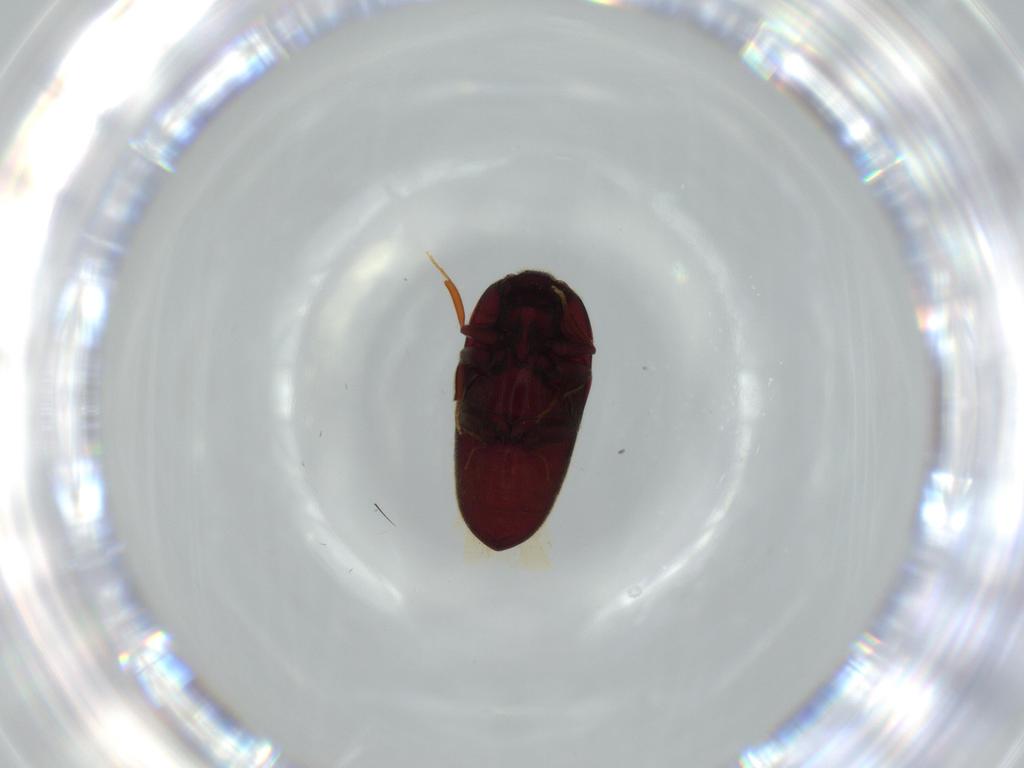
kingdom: Animalia
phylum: Arthropoda
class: Insecta
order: Coleoptera
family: Throscidae
